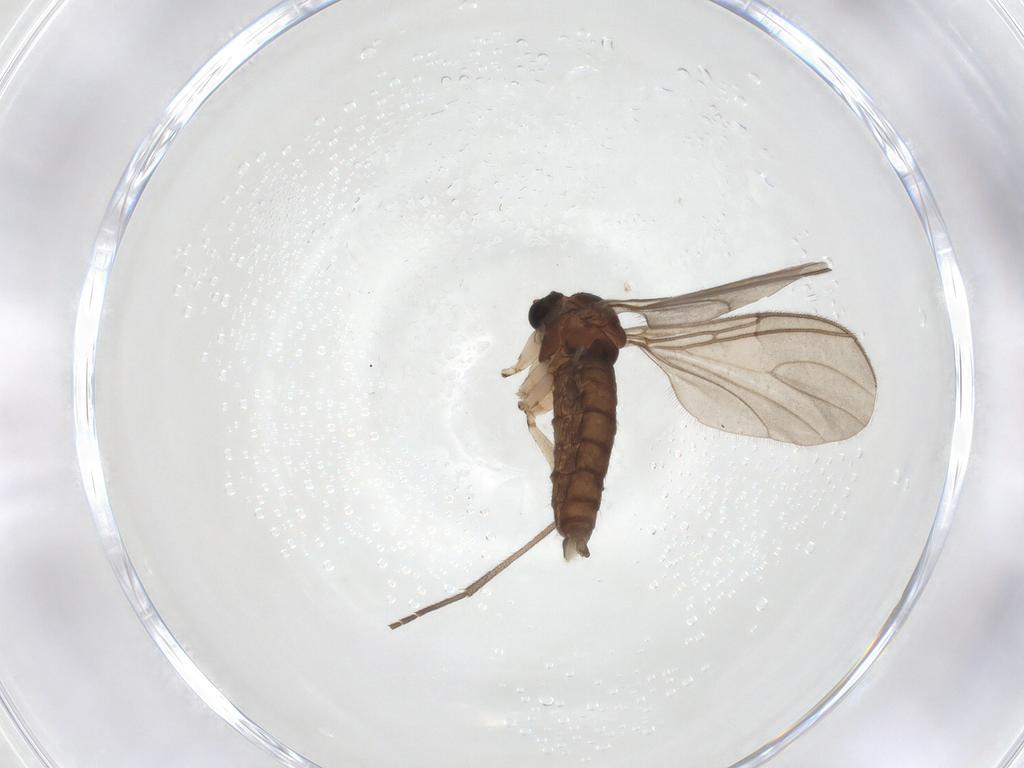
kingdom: Animalia
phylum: Arthropoda
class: Insecta
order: Diptera
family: Sciaridae
